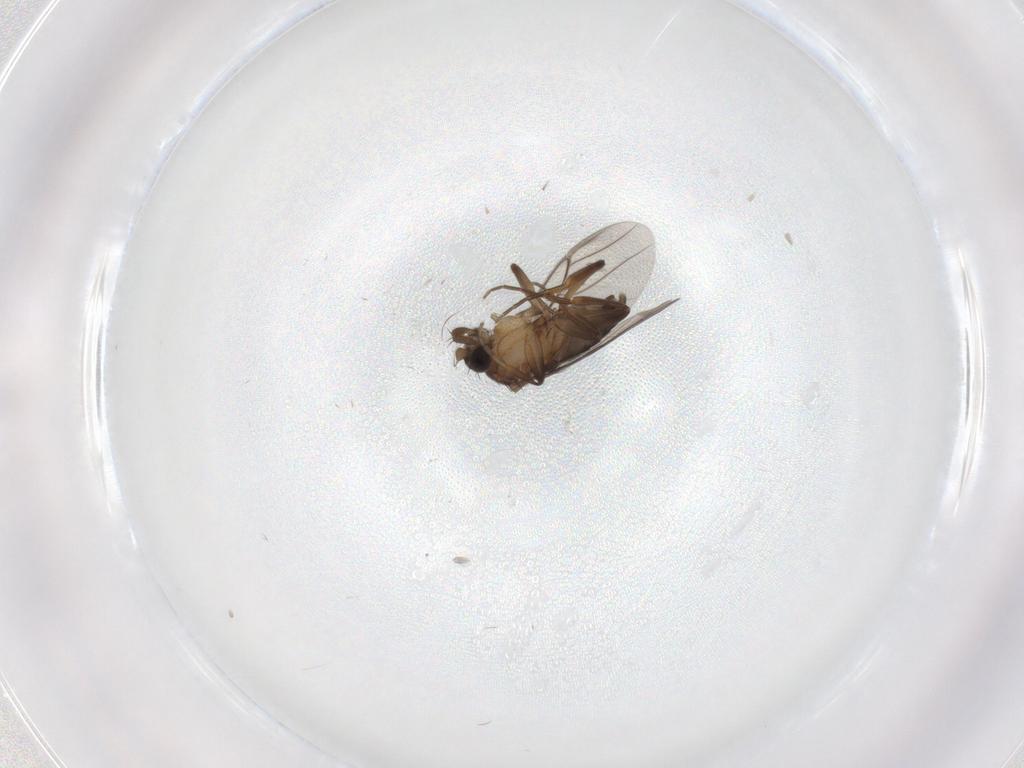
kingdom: Animalia
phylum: Arthropoda
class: Insecta
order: Diptera
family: Phoridae
